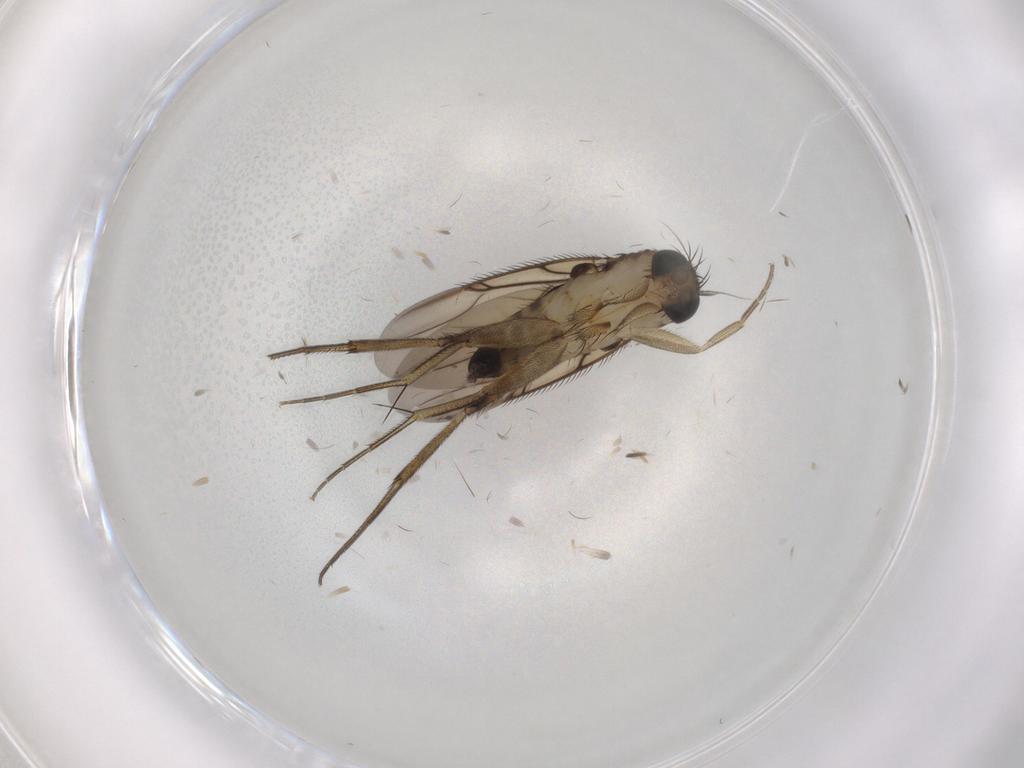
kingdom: Animalia
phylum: Arthropoda
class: Insecta
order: Diptera
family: Phoridae
